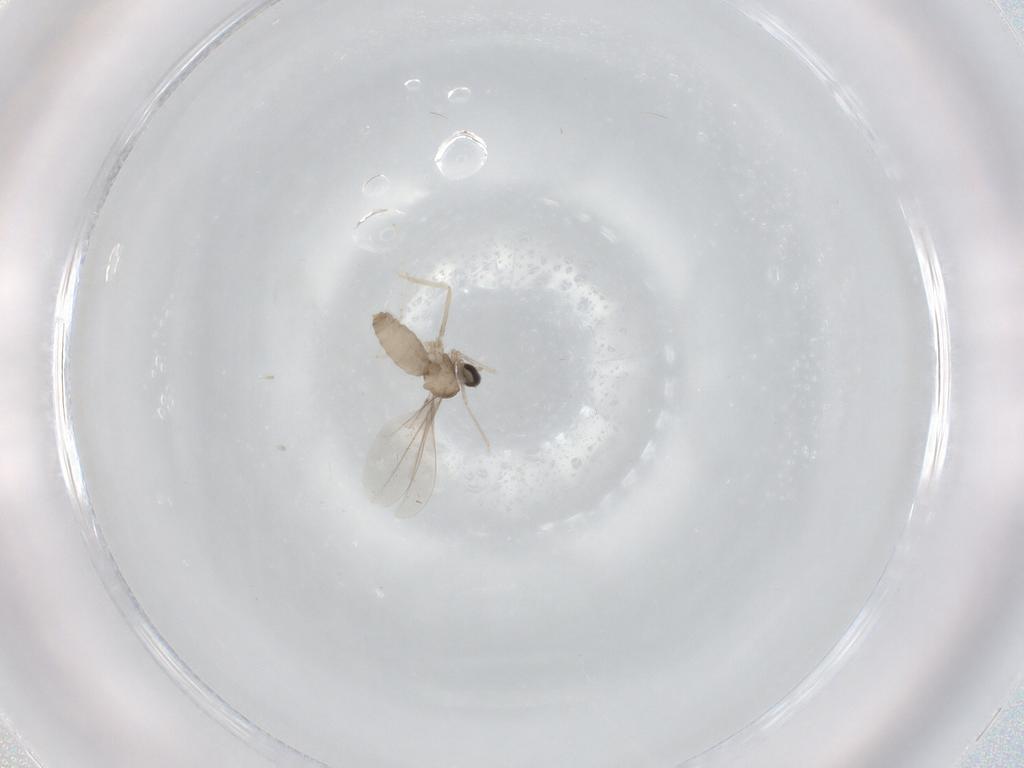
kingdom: Animalia
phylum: Arthropoda
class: Insecta
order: Diptera
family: Cecidomyiidae
